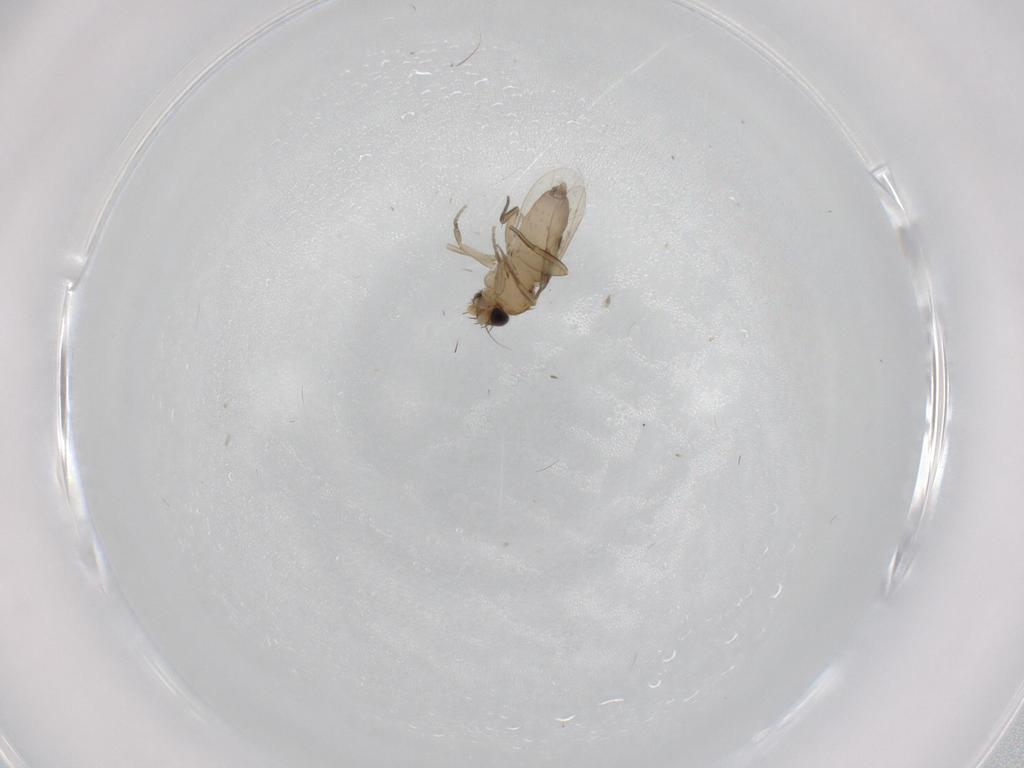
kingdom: Animalia
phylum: Arthropoda
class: Insecta
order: Diptera
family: Phoridae
